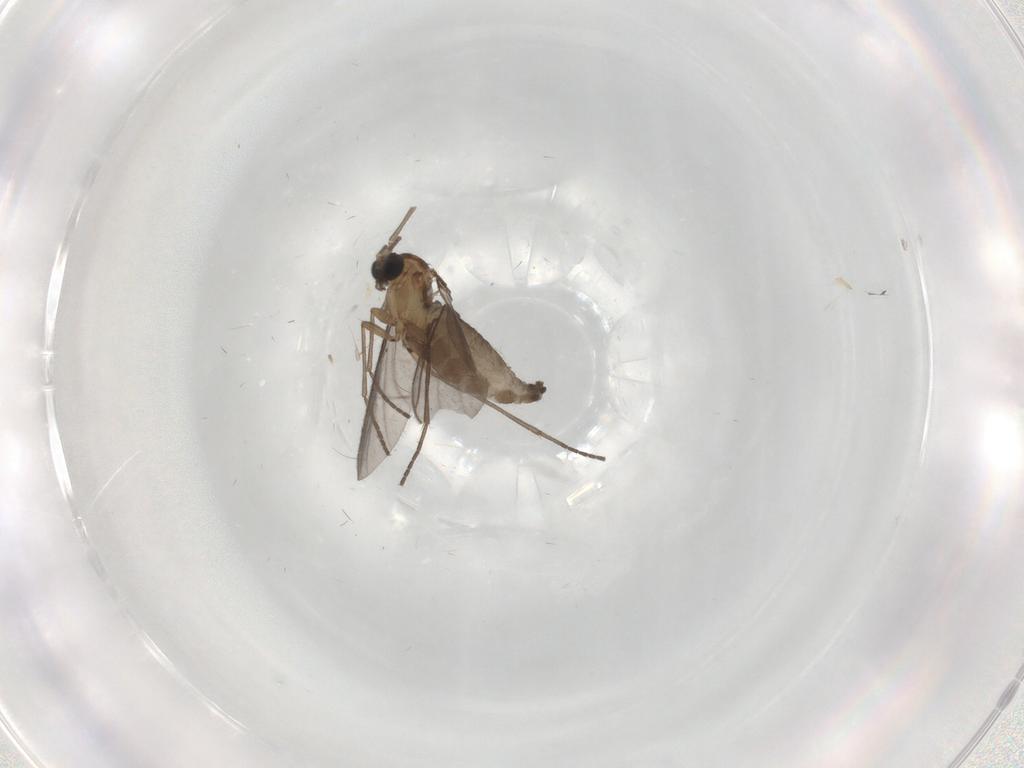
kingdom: Animalia
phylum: Arthropoda
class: Insecta
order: Diptera
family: Sciaridae
